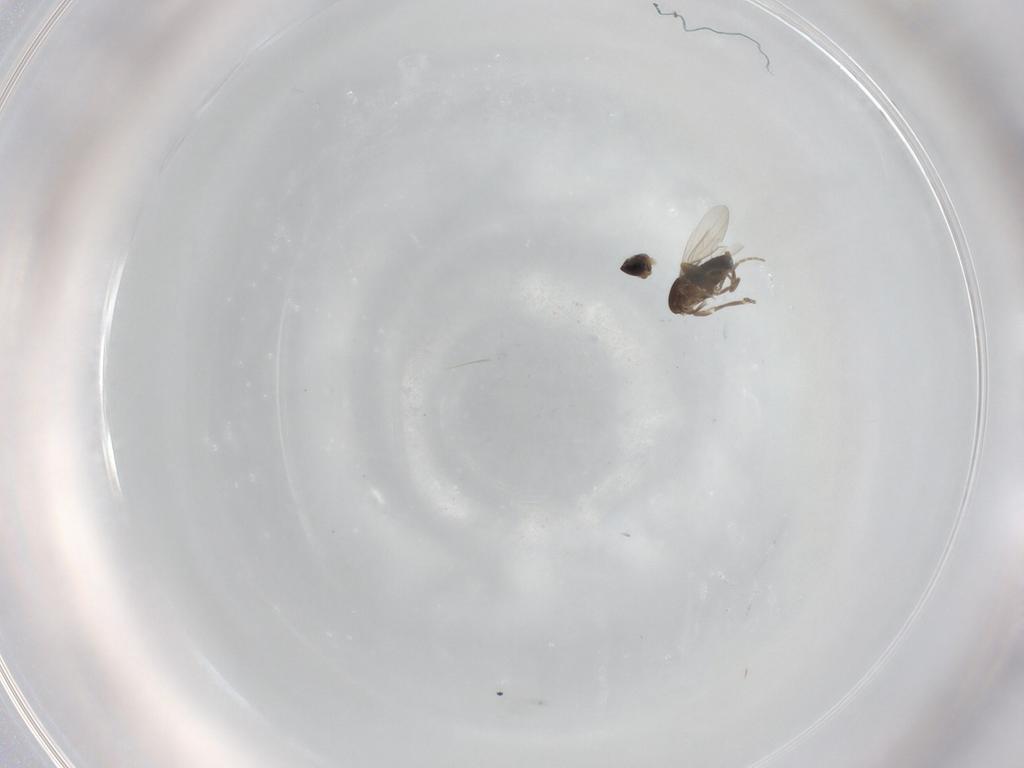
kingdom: Animalia
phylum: Arthropoda
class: Insecta
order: Diptera
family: Phoridae
